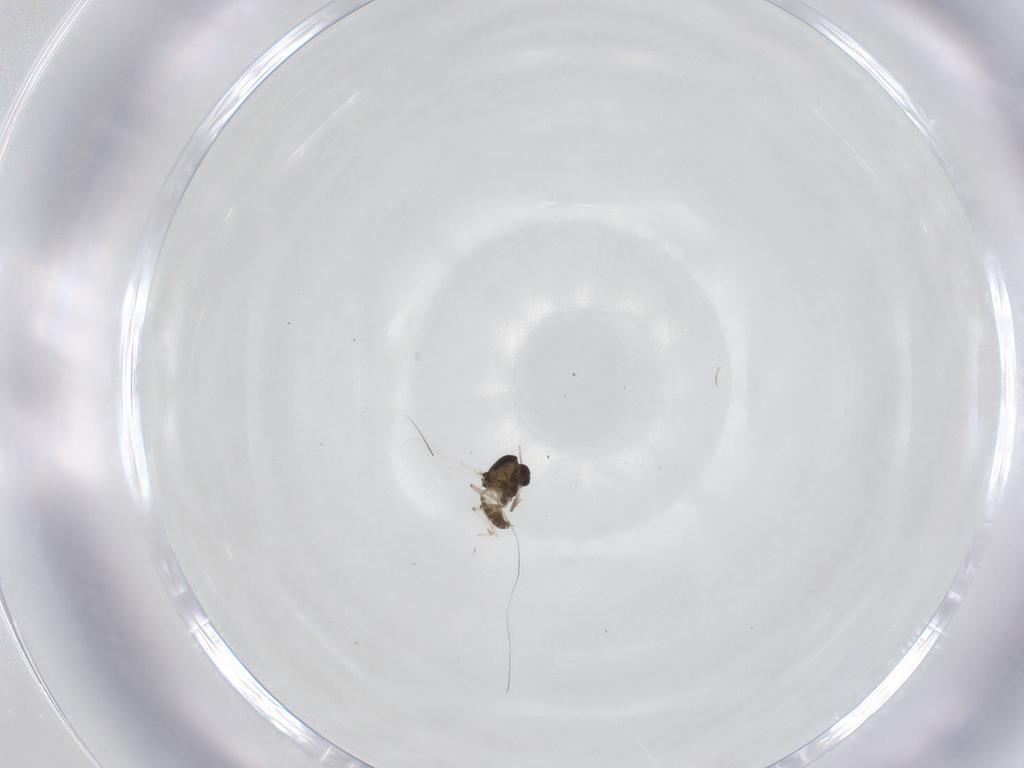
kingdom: Animalia
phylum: Arthropoda
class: Insecta
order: Diptera
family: Chironomidae
